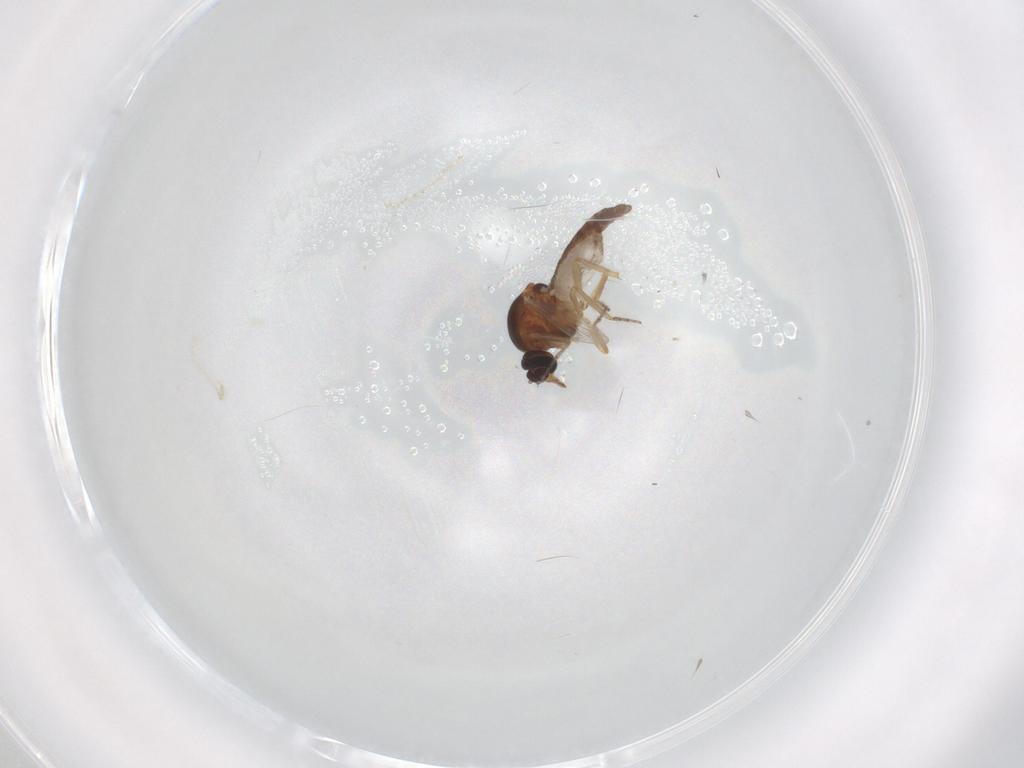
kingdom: Animalia
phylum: Arthropoda
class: Insecta
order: Diptera
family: Ceratopogonidae
